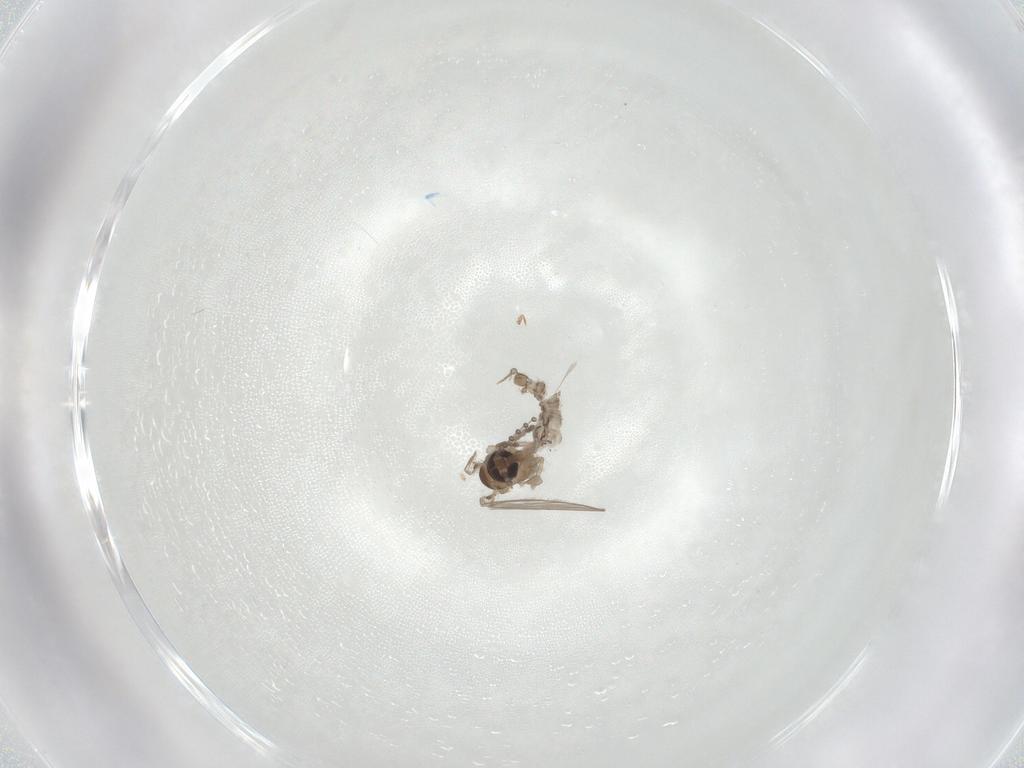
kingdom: Animalia
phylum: Arthropoda
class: Insecta
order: Diptera
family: Psychodidae
